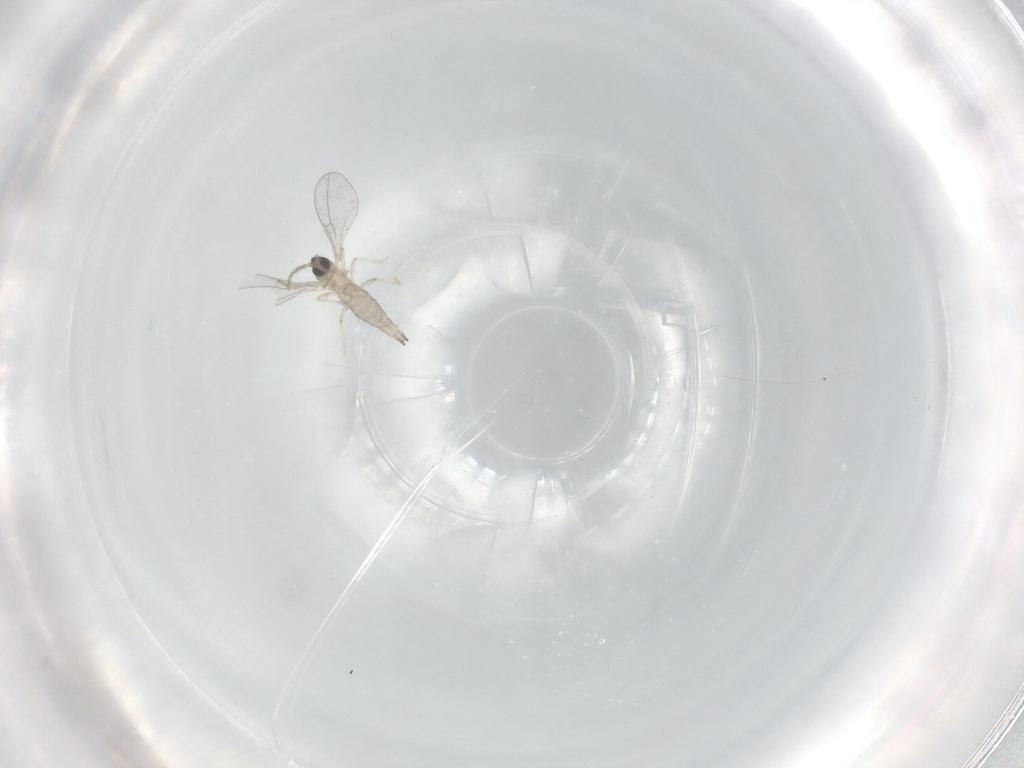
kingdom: Animalia
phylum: Arthropoda
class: Insecta
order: Diptera
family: Cecidomyiidae
